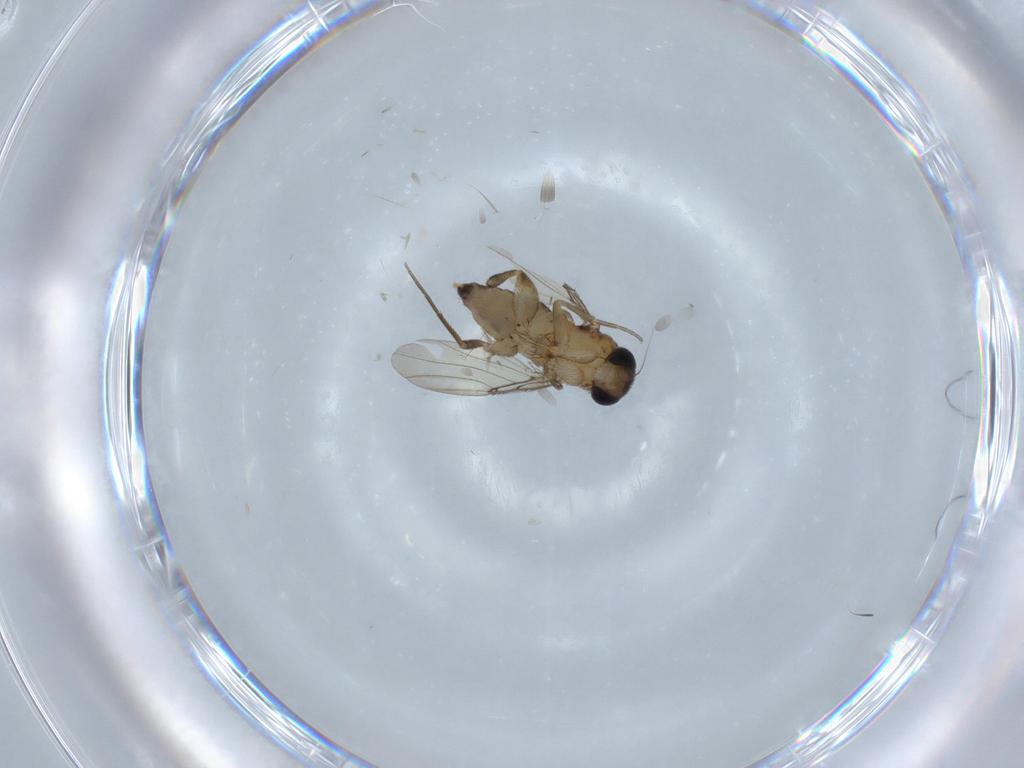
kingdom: Animalia
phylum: Arthropoda
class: Insecta
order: Diptera
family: Phoridae
